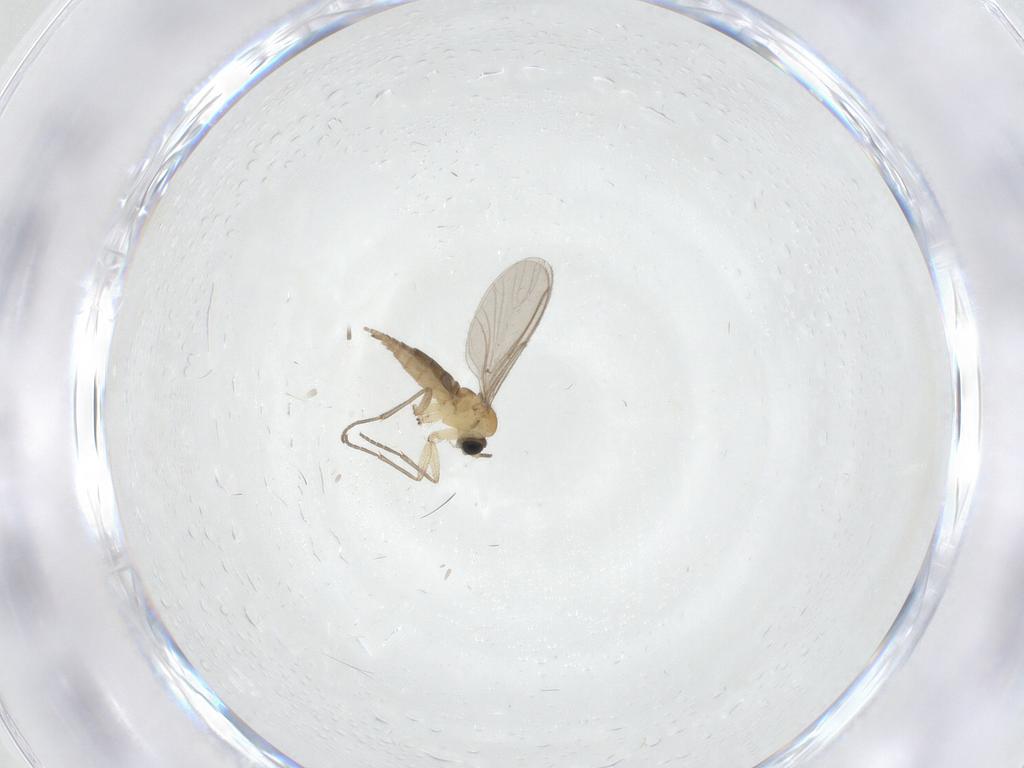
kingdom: Animalia
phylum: Arthropoda
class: Insecta
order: Diptera
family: Sciaridae
